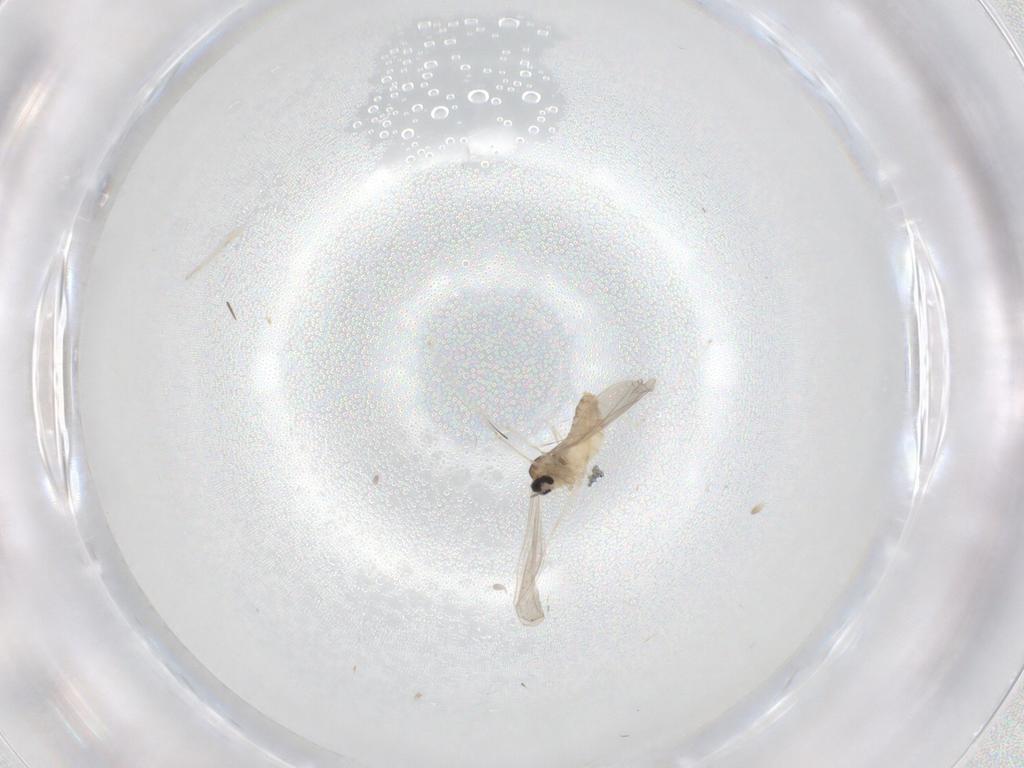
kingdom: Animalia
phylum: Arthropoda
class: Insecta
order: Diptera
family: Cecidomyiidae
